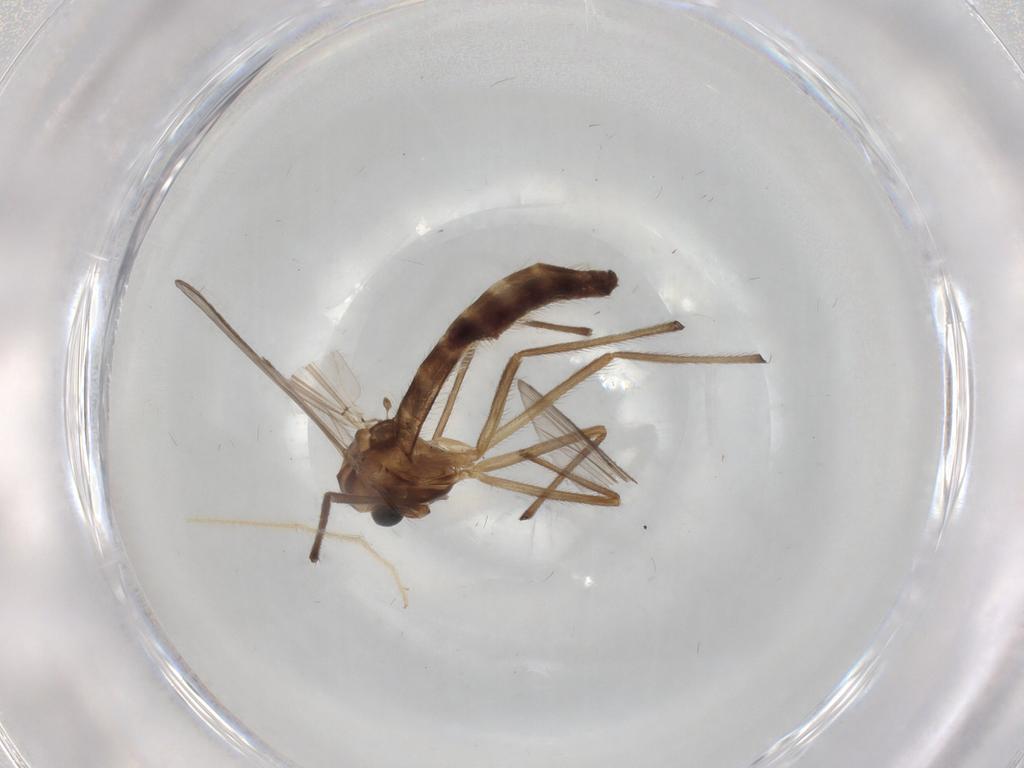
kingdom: Animalia
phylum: Arthropoda
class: Insecta
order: Diptera
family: Platystomatidae
